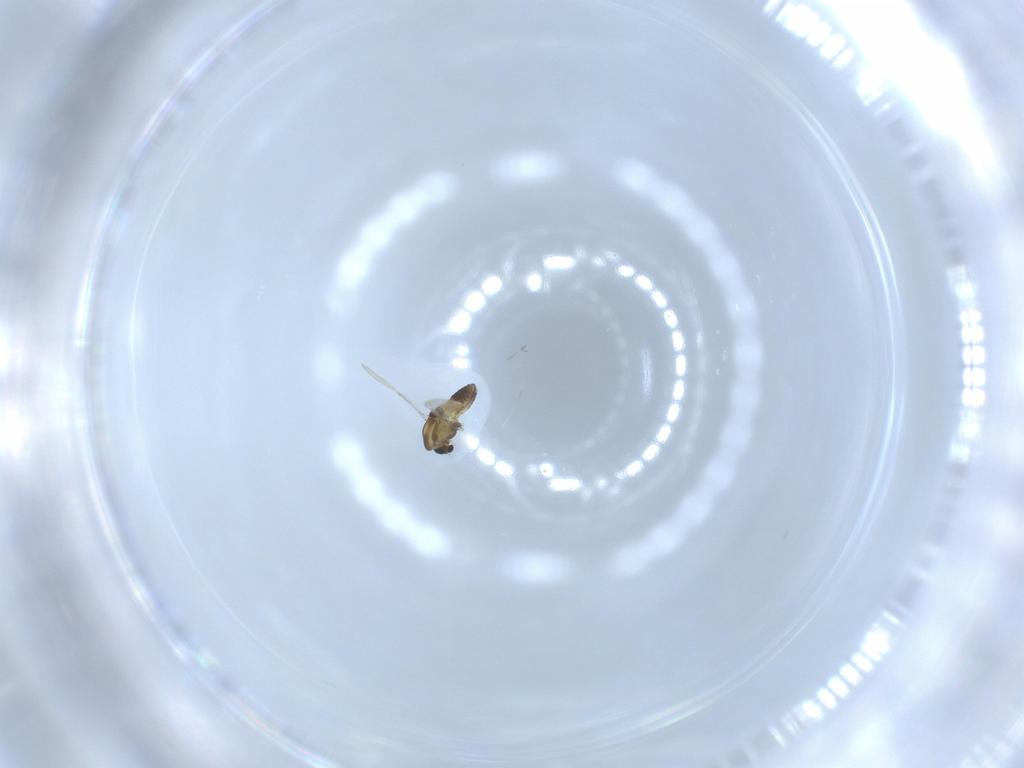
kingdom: Animalia
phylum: Arthropoda
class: Insecta
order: Diptera
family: Chironomidae
